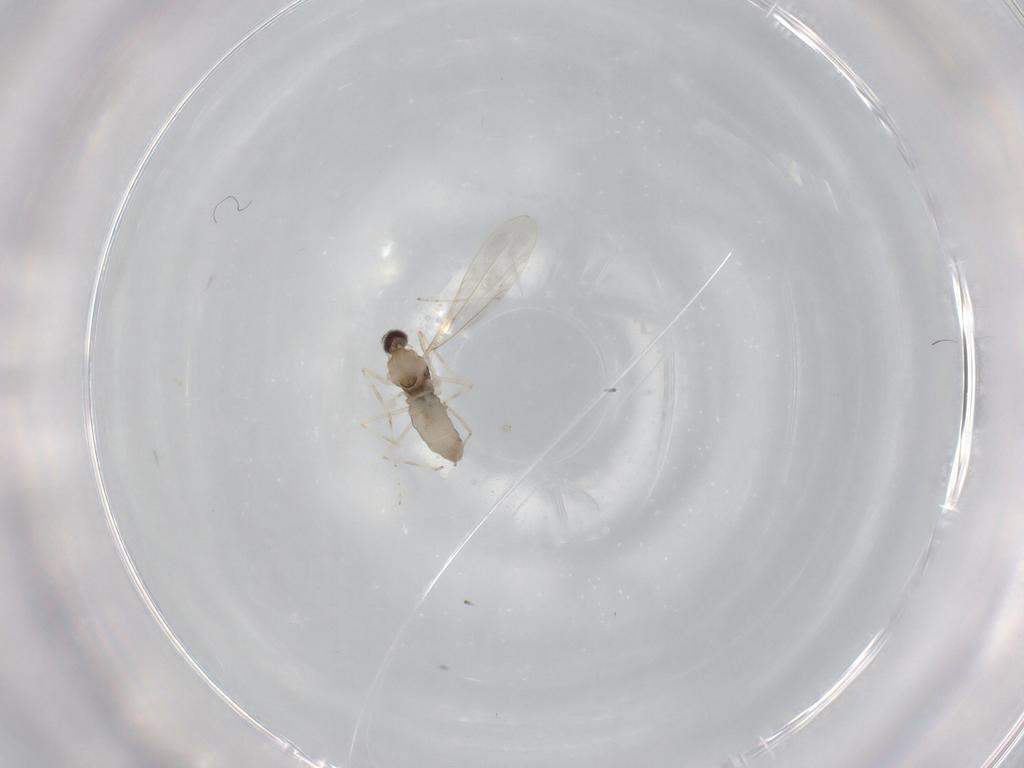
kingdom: Animalia
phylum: Arthropoda
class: Insecta
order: Diptera
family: Cecidomyiidae
